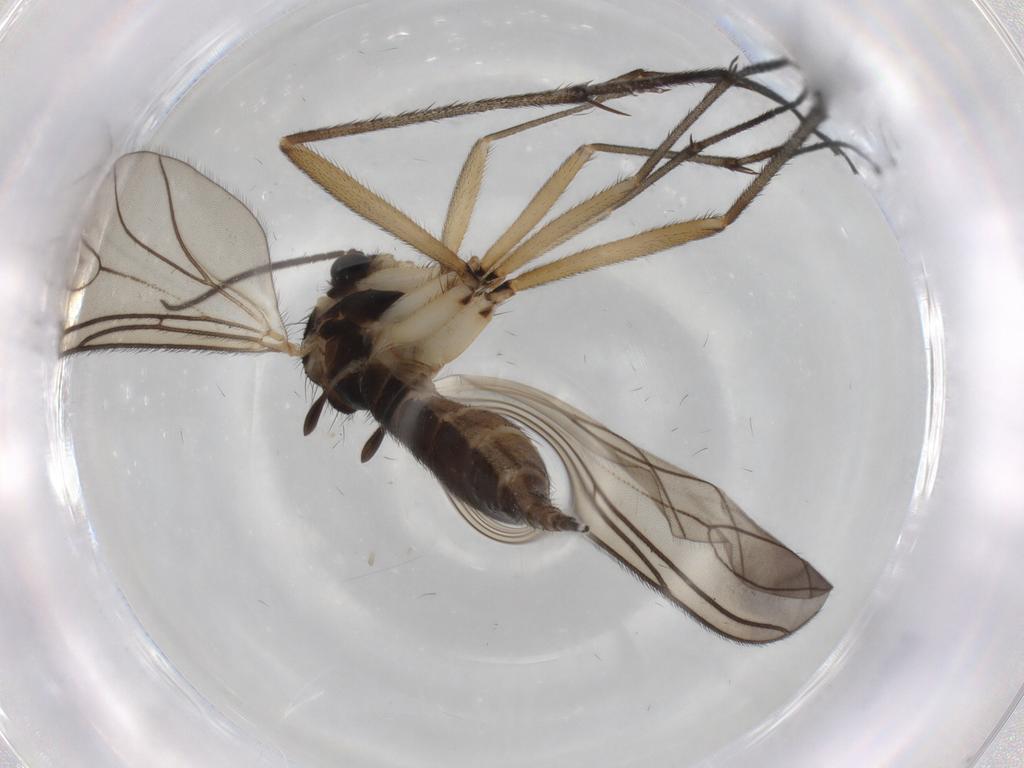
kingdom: Animalia
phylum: Arthropoda
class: Insecta
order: Diptera
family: Sciaridae
